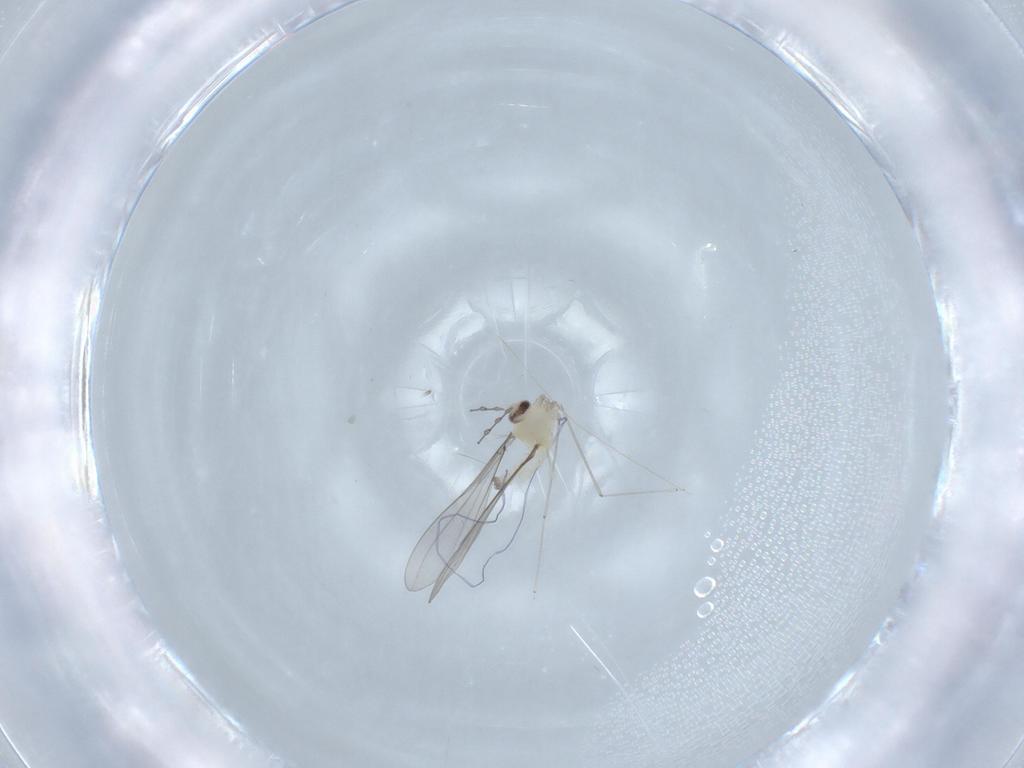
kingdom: Animalia
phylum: Arthropoda
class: Insecta
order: Diptera
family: Cecidomyiidae
